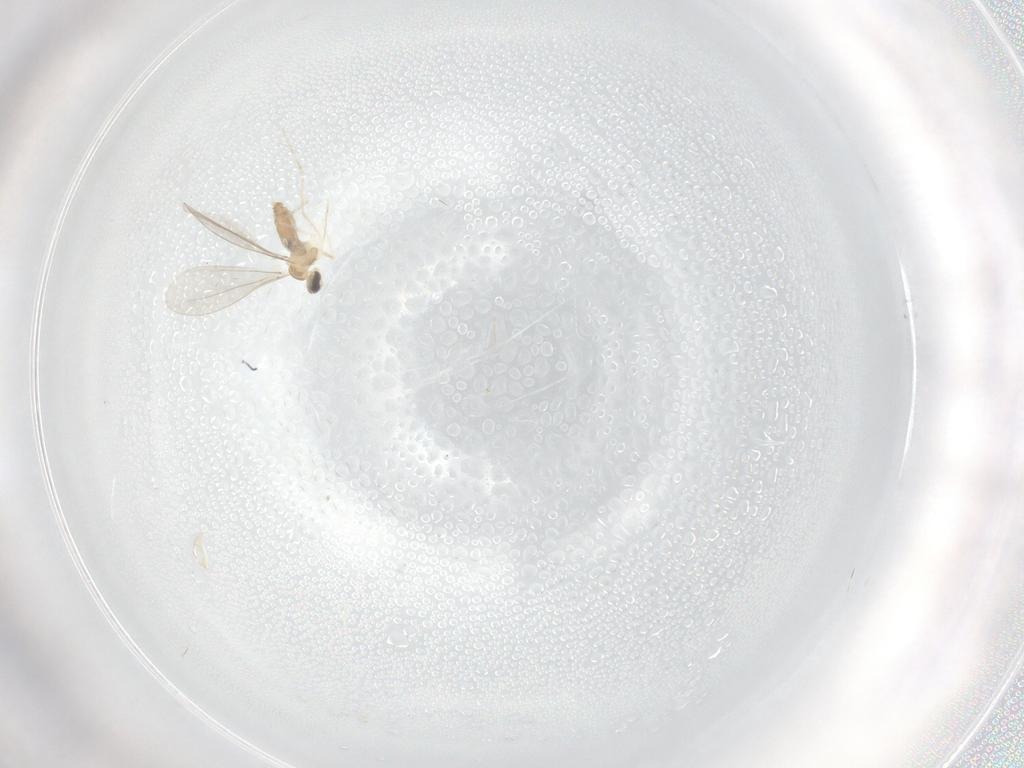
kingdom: Animalia
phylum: Arthropoda
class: Insecta
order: Diptera
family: Cecidomyiidae
